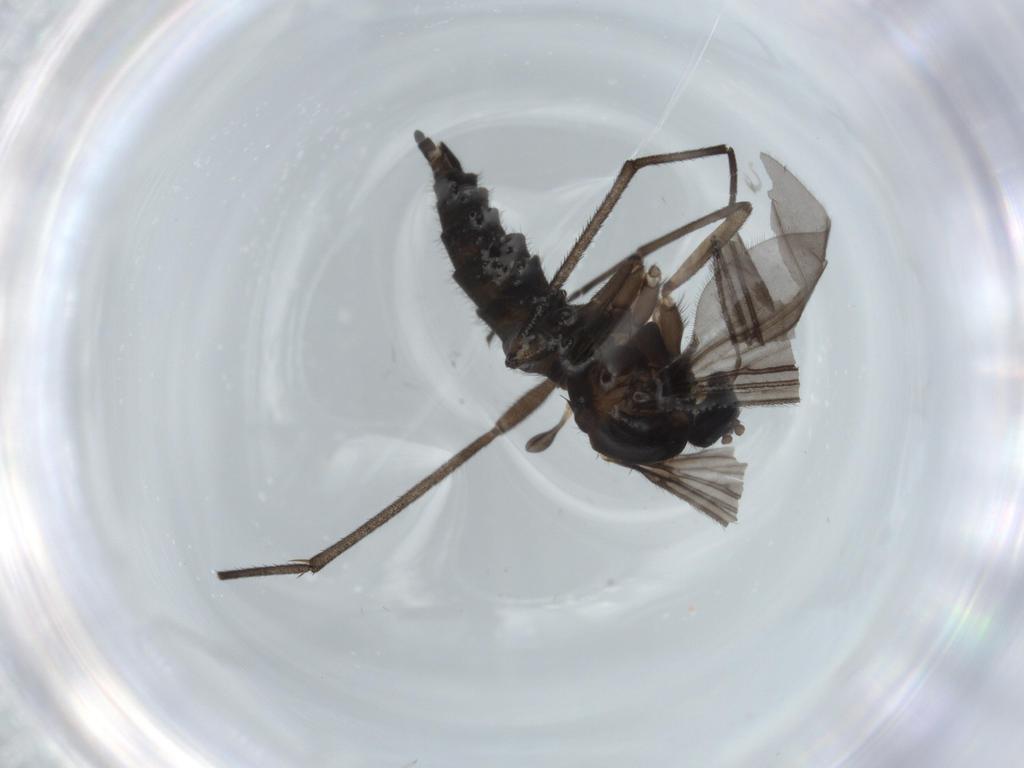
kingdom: Animalia
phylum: Arthropoda
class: Insecta
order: Diptera
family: Sciaridae
